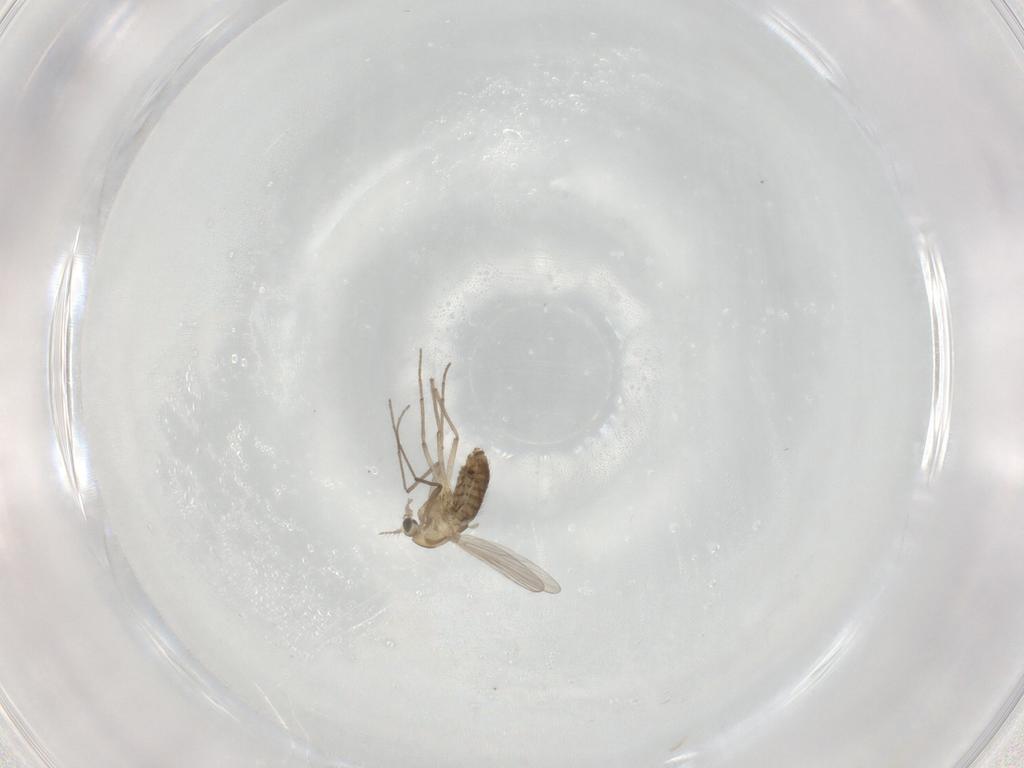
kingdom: Animalia
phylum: Arthropoda
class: Insecta
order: Diptera
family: Chironomidae
